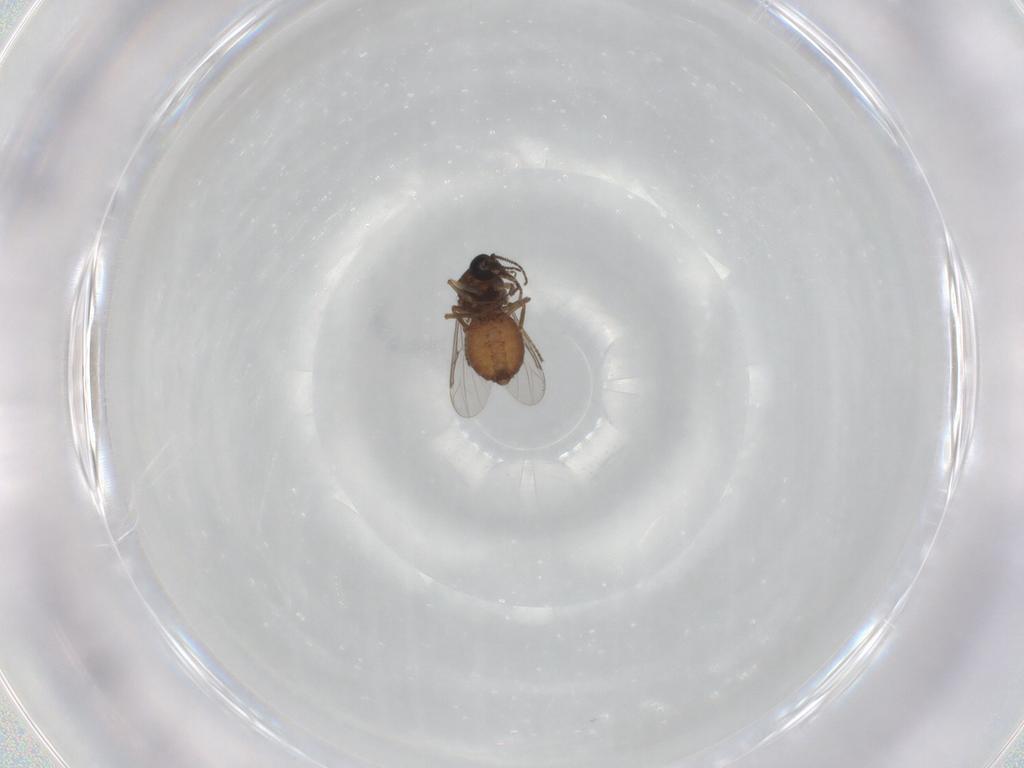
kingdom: Animalia
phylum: Arthropoda
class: Insecta
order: Diptera
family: Ceratopogonidae
